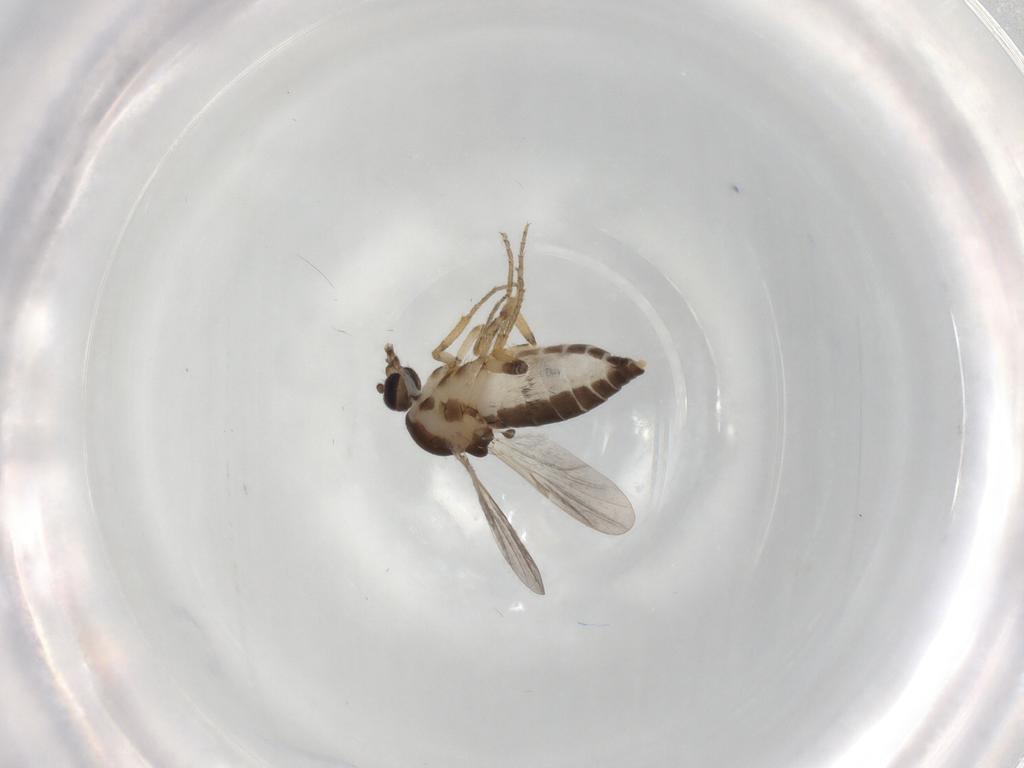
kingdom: Animalia
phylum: Arthropoda
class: Insecta
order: Diptera
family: Ceratopogonidae
